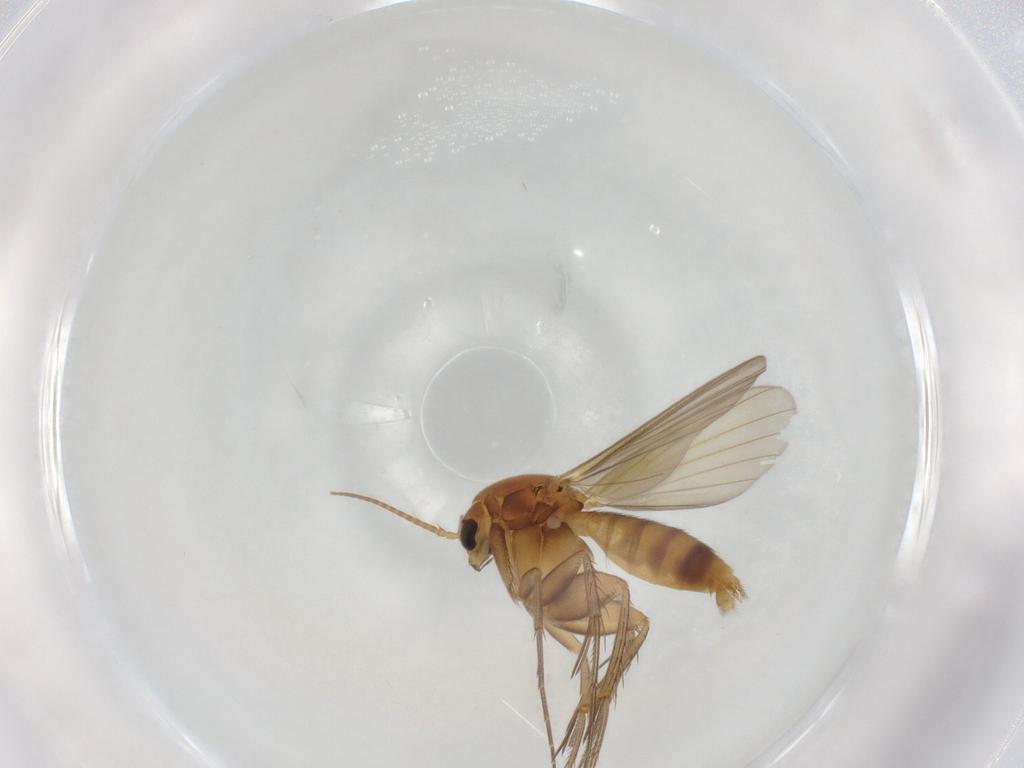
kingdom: Animalia
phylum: Arthropoda
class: Insecta
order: Diptera
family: Mycetophilidae
